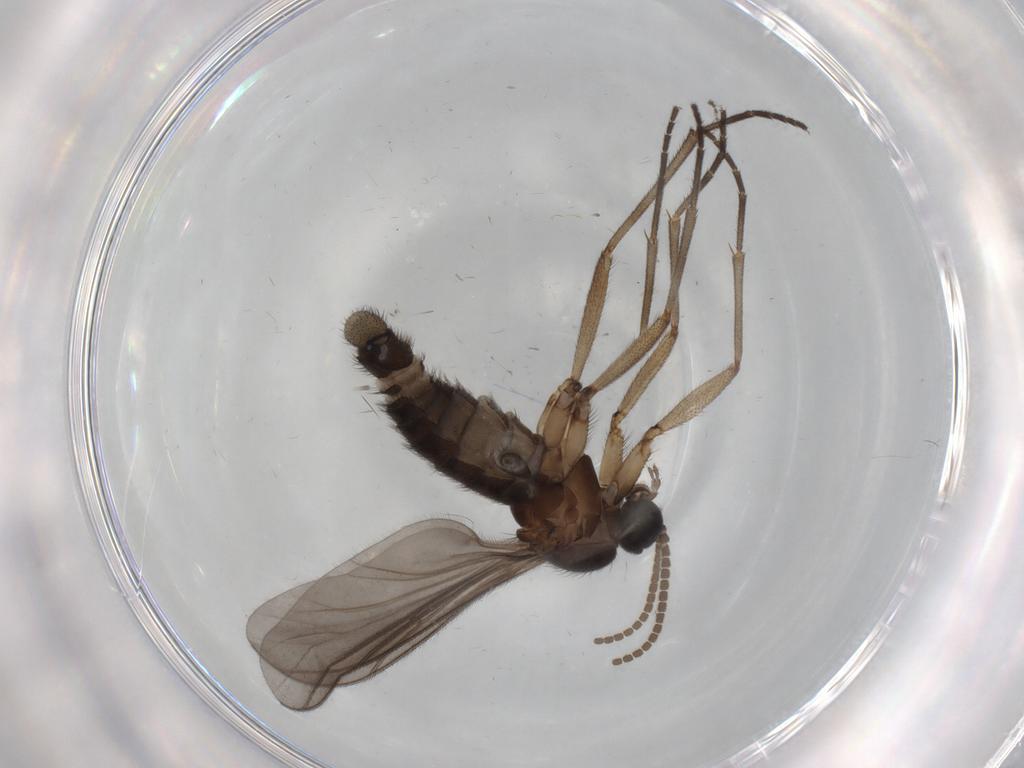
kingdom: Animalia
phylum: Arthropoda
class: Insecta
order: Diptera
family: Sciaridae
